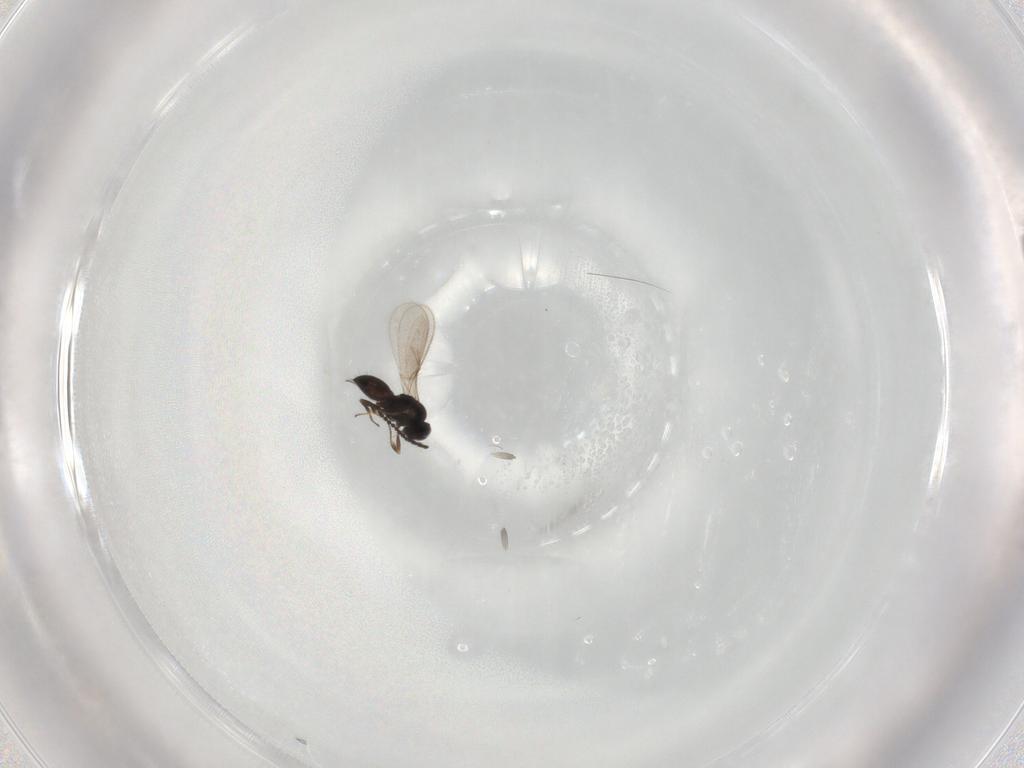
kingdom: Animalia
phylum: Arthropoda
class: Insecta
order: Hymenoptera
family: Scelionidae
